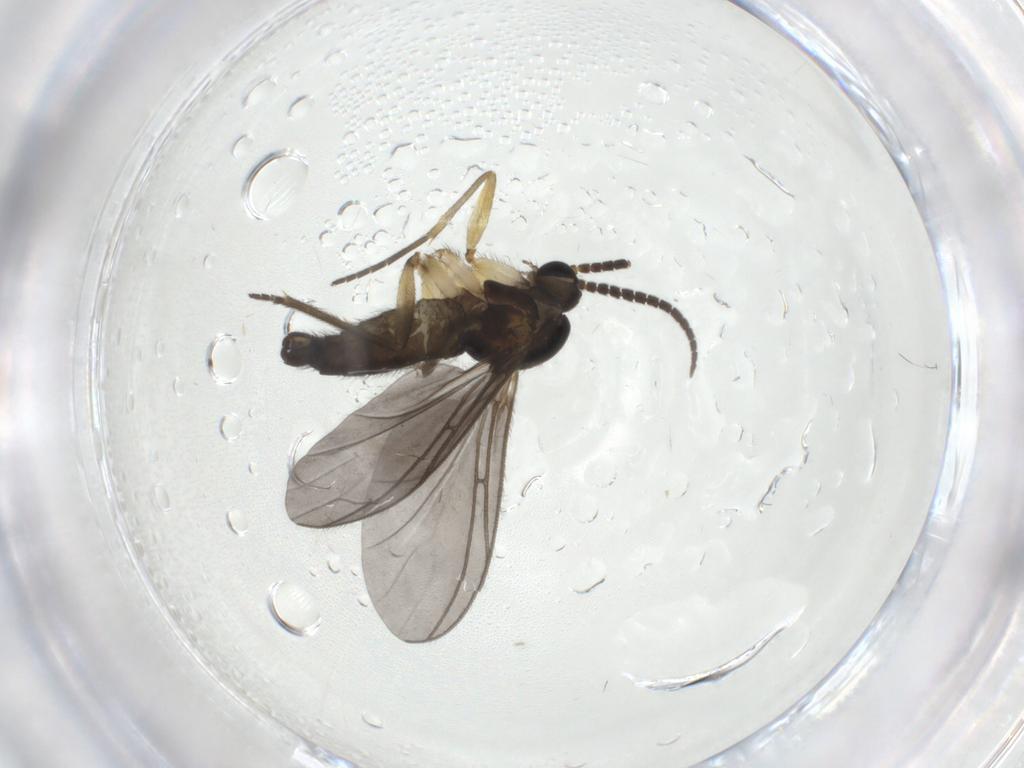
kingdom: Animalia
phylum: Arthropoda
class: Insecta
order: Diptera
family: Sciaridae
